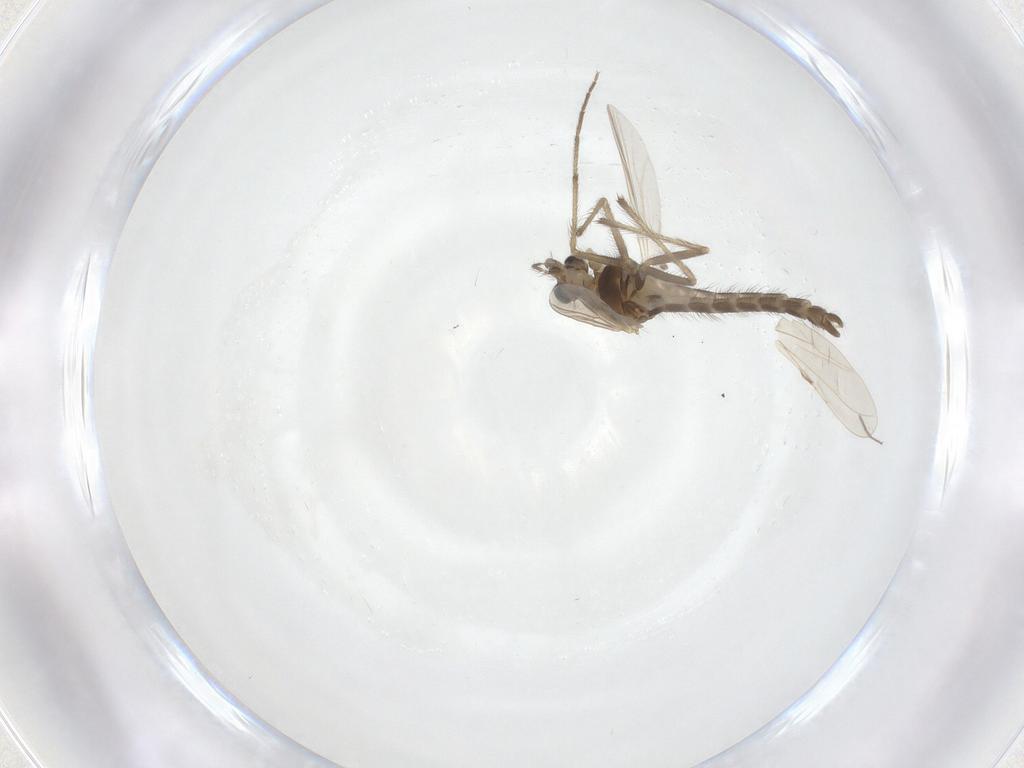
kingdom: Animalia
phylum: Arthropoda
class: Insecta
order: Diptera
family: Chironomidae
